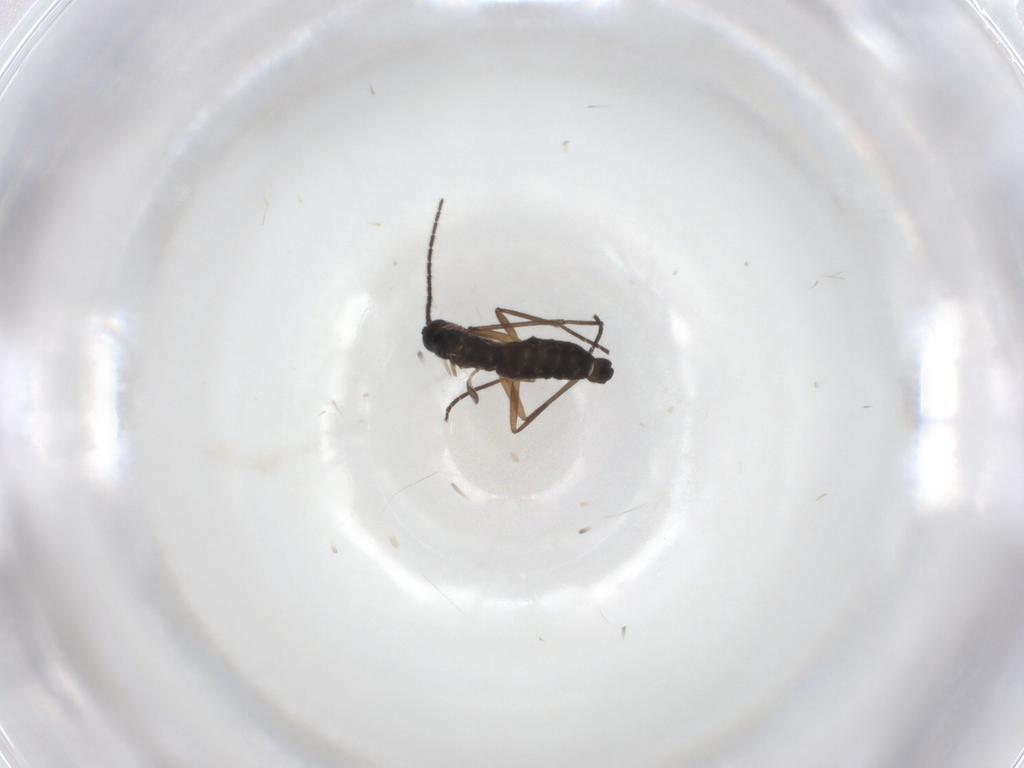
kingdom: Animalia
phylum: Arthropoda
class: Insecta
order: Diptera
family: Sciaridae
